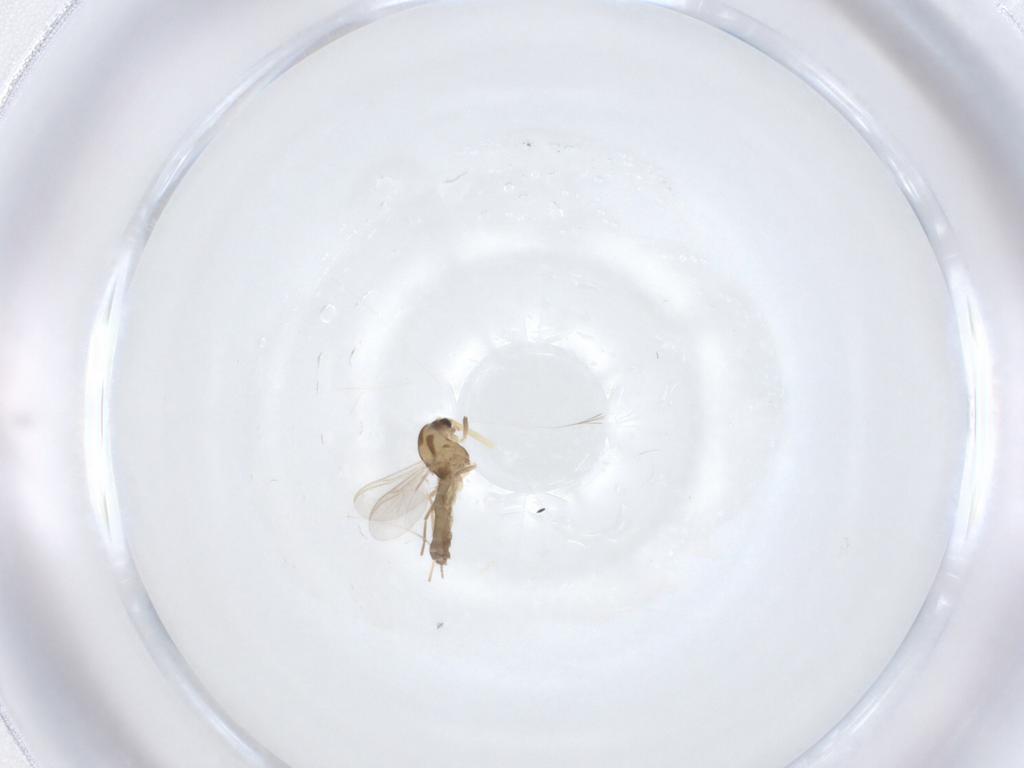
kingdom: Animalia
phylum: Arthropoda
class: Insecta
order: Diptera
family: Cecidomyiidae
